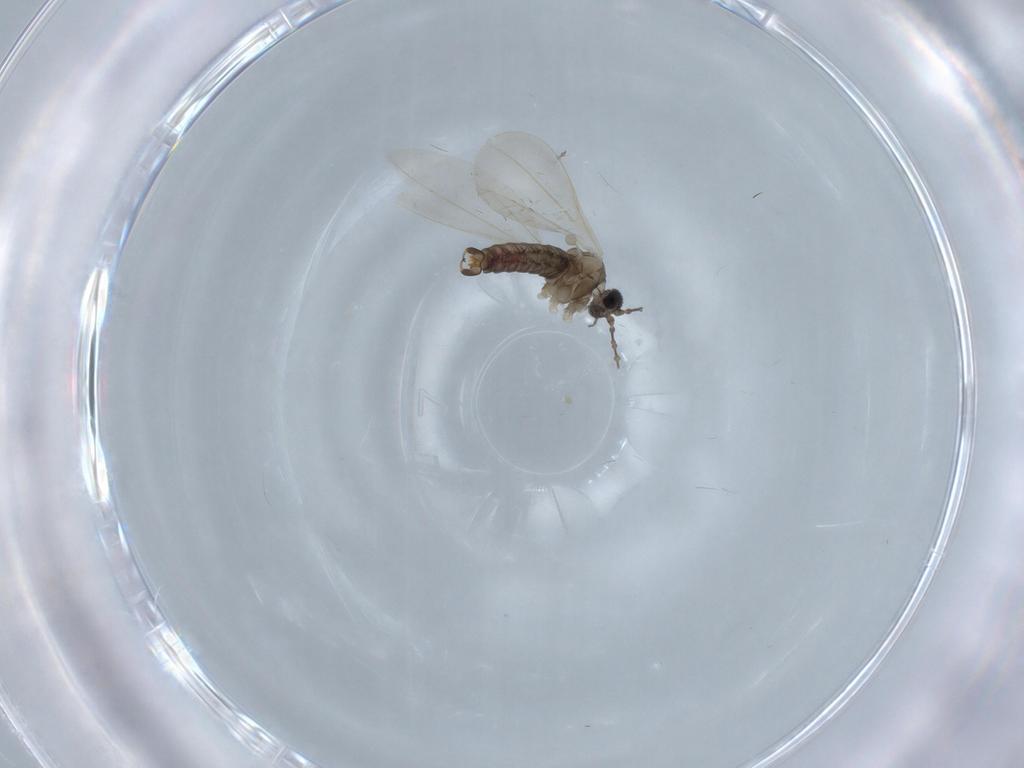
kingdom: Animalia
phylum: Arthropoda
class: Insecta
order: Diptera
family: Cecidomyiidae
